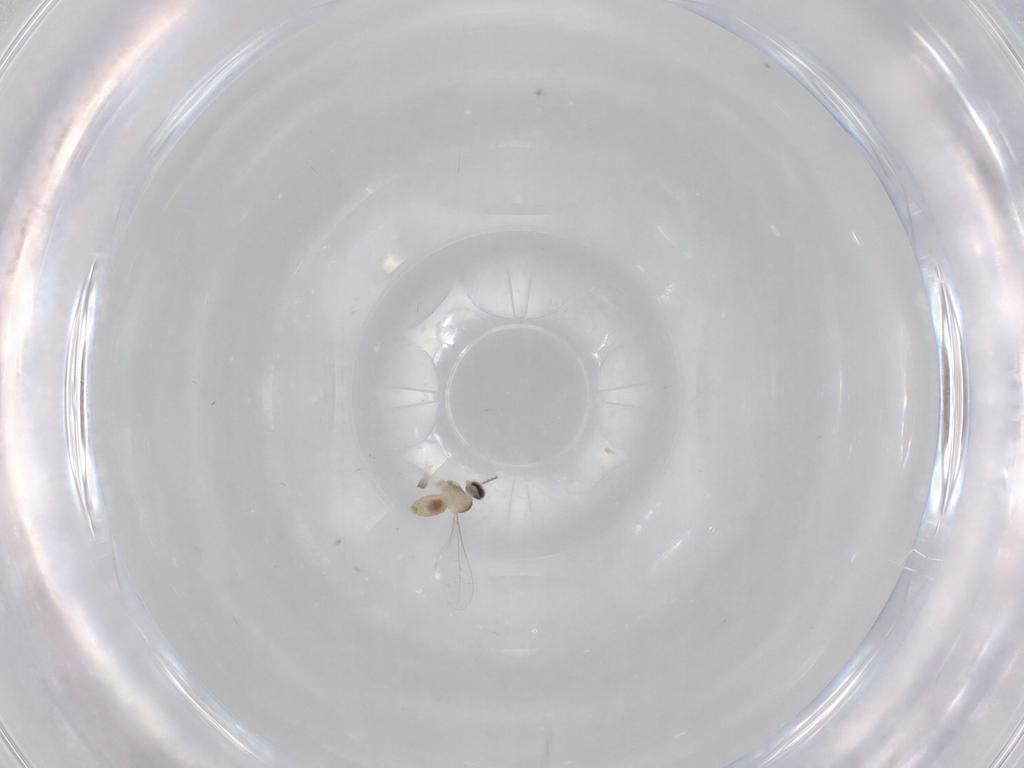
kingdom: Animalia
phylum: Arthropoda
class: Insecta
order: Diptera
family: Cecidomyiidae
